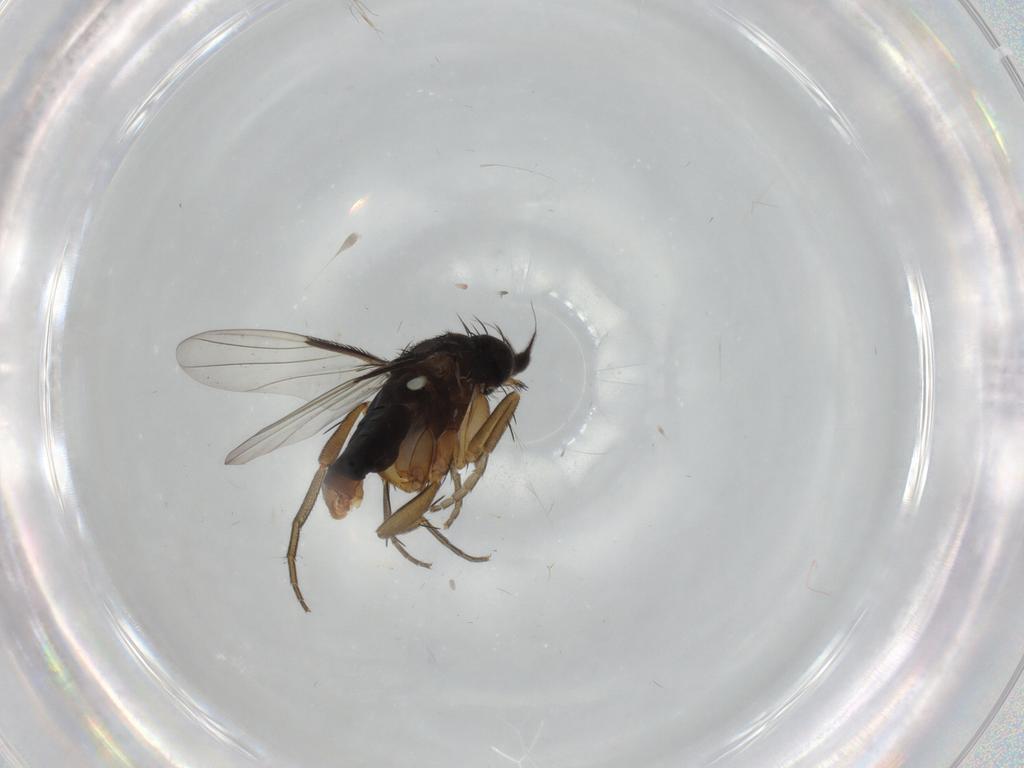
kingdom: Animalia
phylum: Arthropoda
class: Insecta
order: Diptera
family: Phoridae
